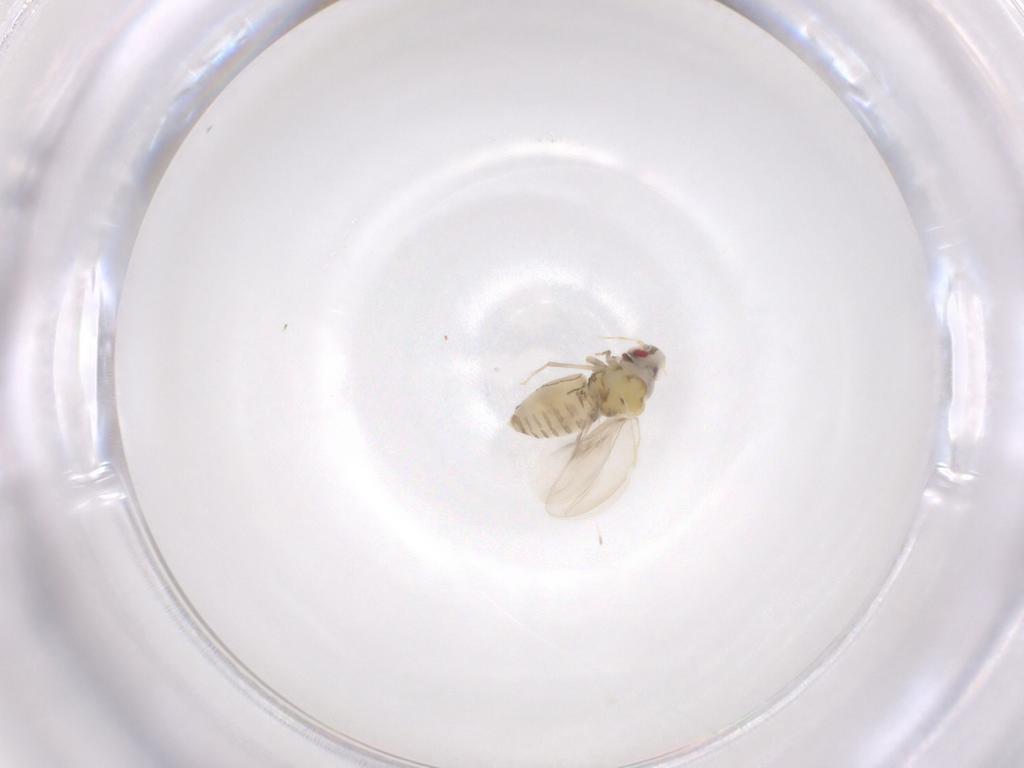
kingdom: Animalia
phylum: Arthropoda
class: Insecta
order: Hemiptera
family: Aleyrodidae
